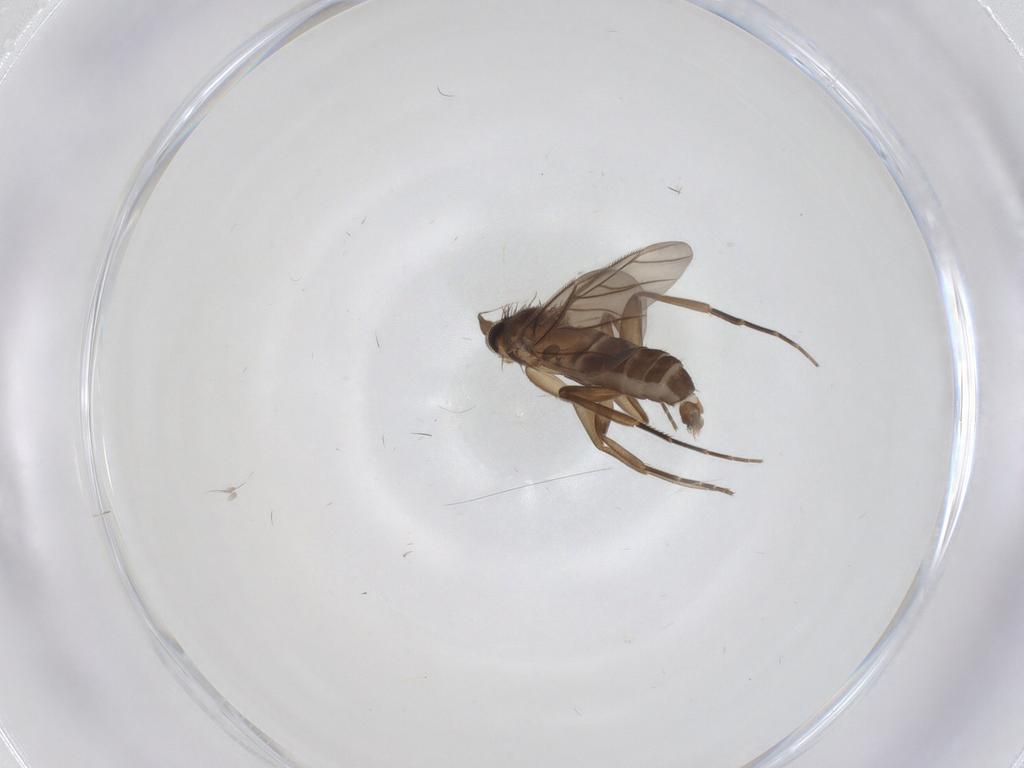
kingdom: Animalia
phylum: Arthropoda
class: Insecta
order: Diptera
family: Phoridae
